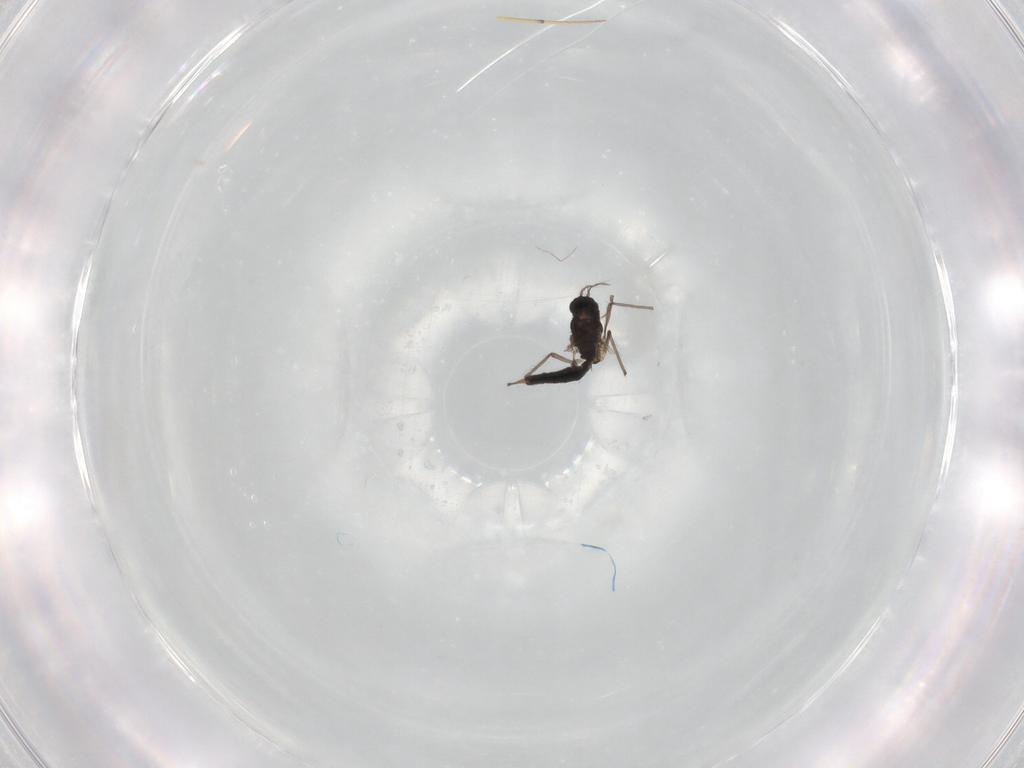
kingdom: Animalia
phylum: Arthropoda
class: Insecta
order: Diptera
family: Chironomidae
